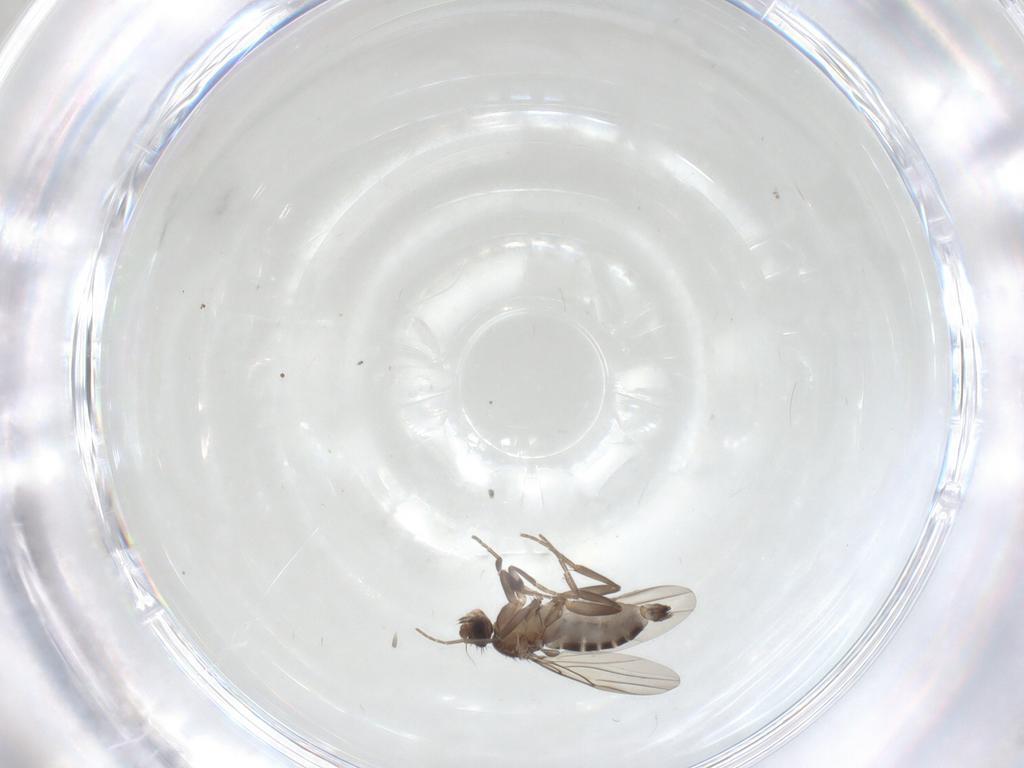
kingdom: Animalia
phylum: Arthropoda
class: Insecta
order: Diptera
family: Phoridae
